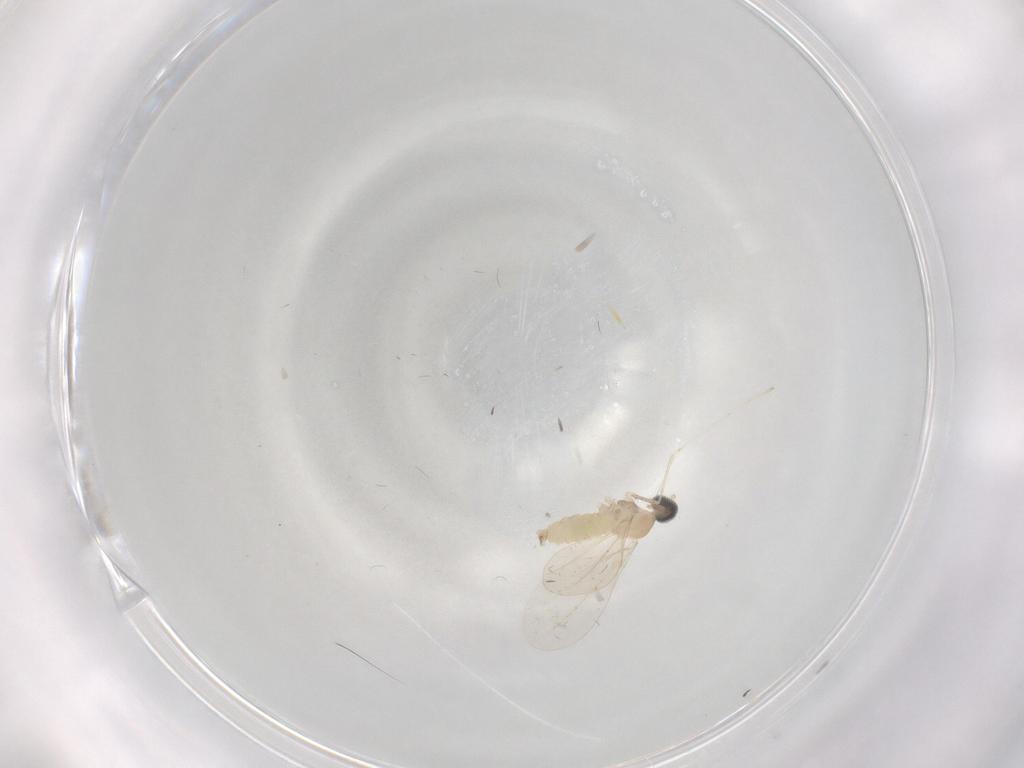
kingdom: Animalia
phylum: Arthropoda
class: Insecta
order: Diptera
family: Cecidomyiidae
